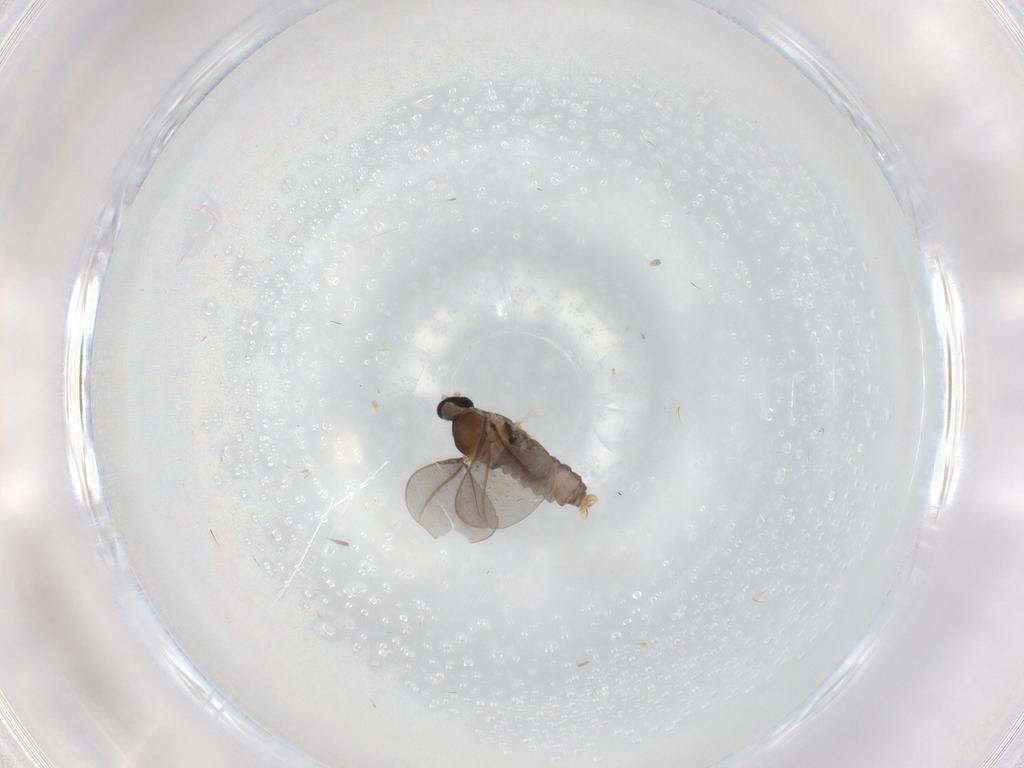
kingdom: Animalia
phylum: Arthropoda
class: Insecta
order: Diptera
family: Cecidomyiidae
